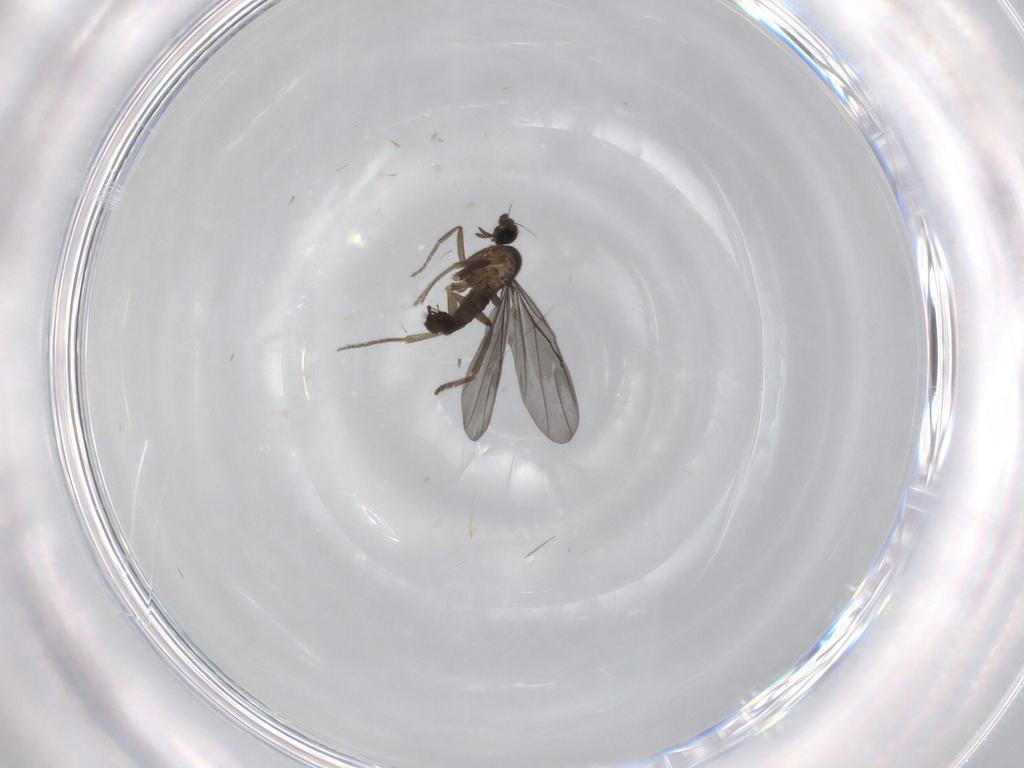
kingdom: Animalia
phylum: Arthropoda
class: Insecta
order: Diptera
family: Phoridae
